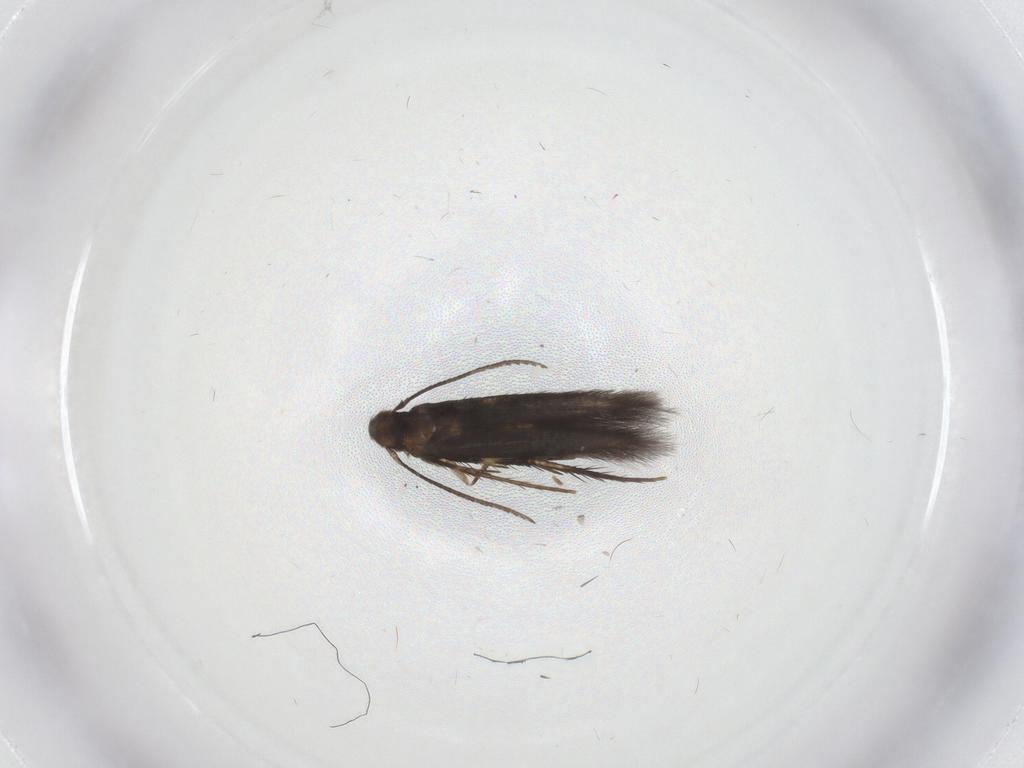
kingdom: Animalia
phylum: Arthropoda
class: Insecta
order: Lepidoptera
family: Gelechiidae
